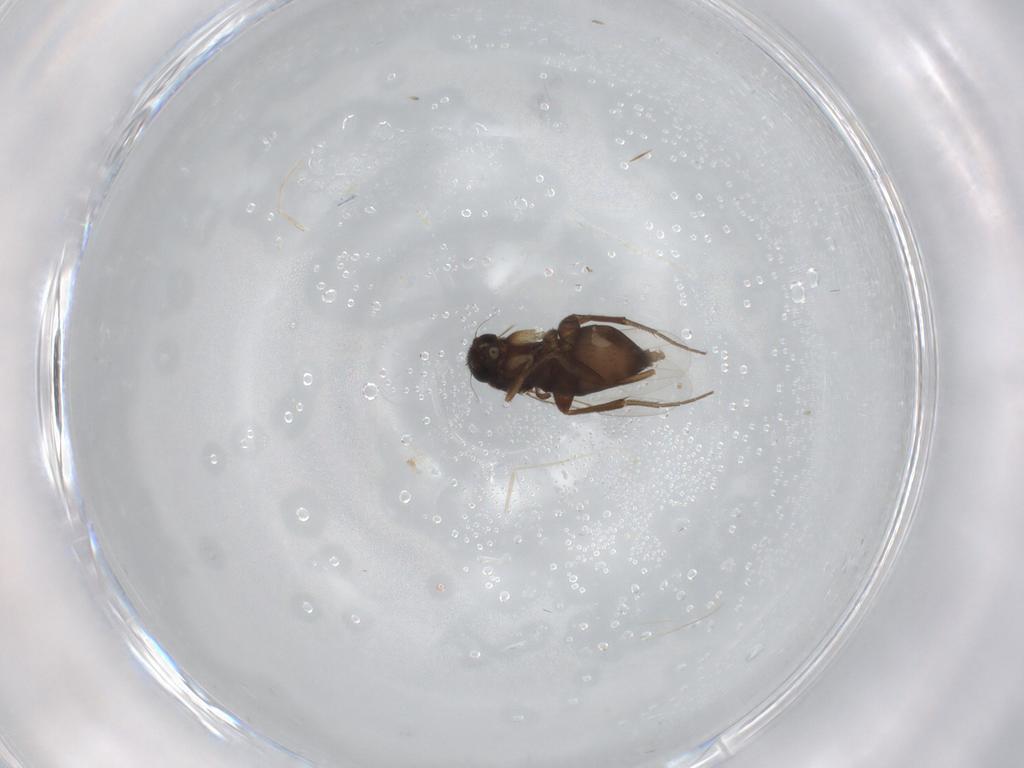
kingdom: Animalia
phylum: Arthropoda
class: Insecta
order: Diptera
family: Phoridae
